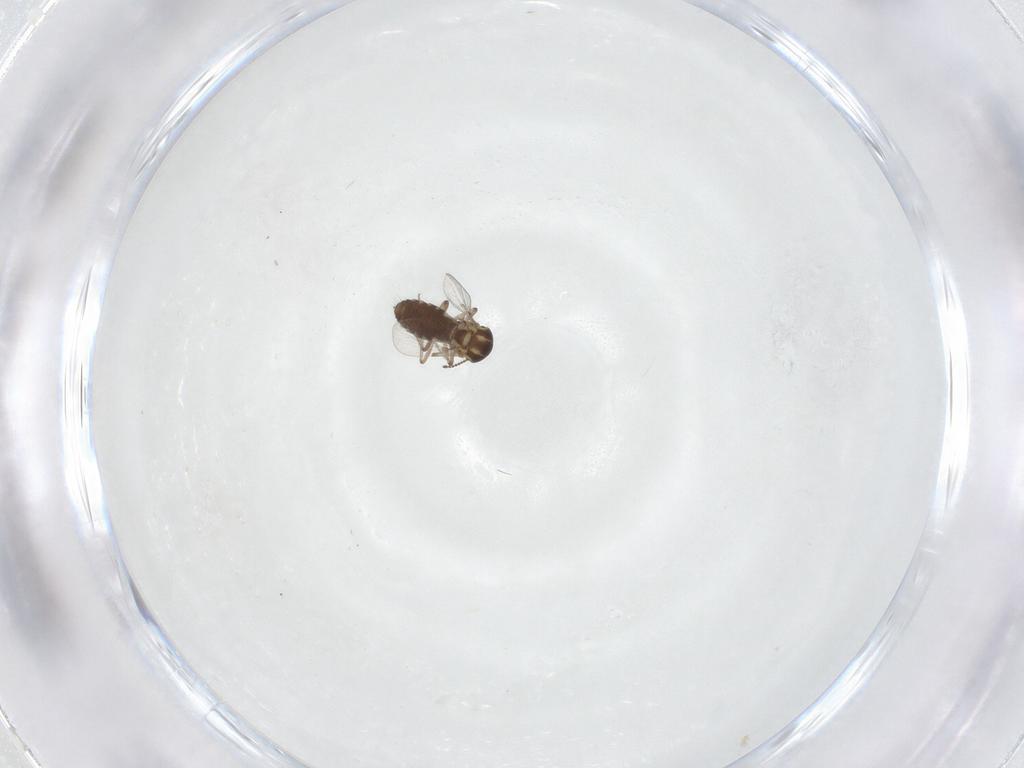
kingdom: Animalia
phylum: Arthropoda
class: Insecta
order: Diptera
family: Ceratopogonidae
